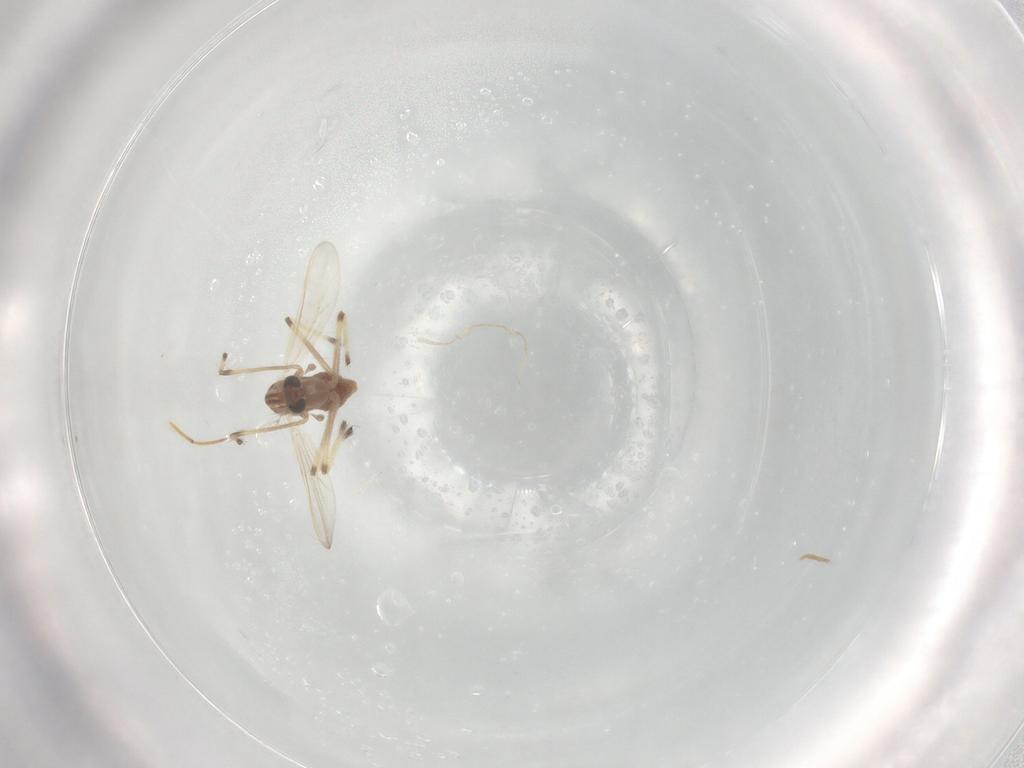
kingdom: Animalia
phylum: Arthropoda
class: Insecta
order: Diptera
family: Chironomidae
